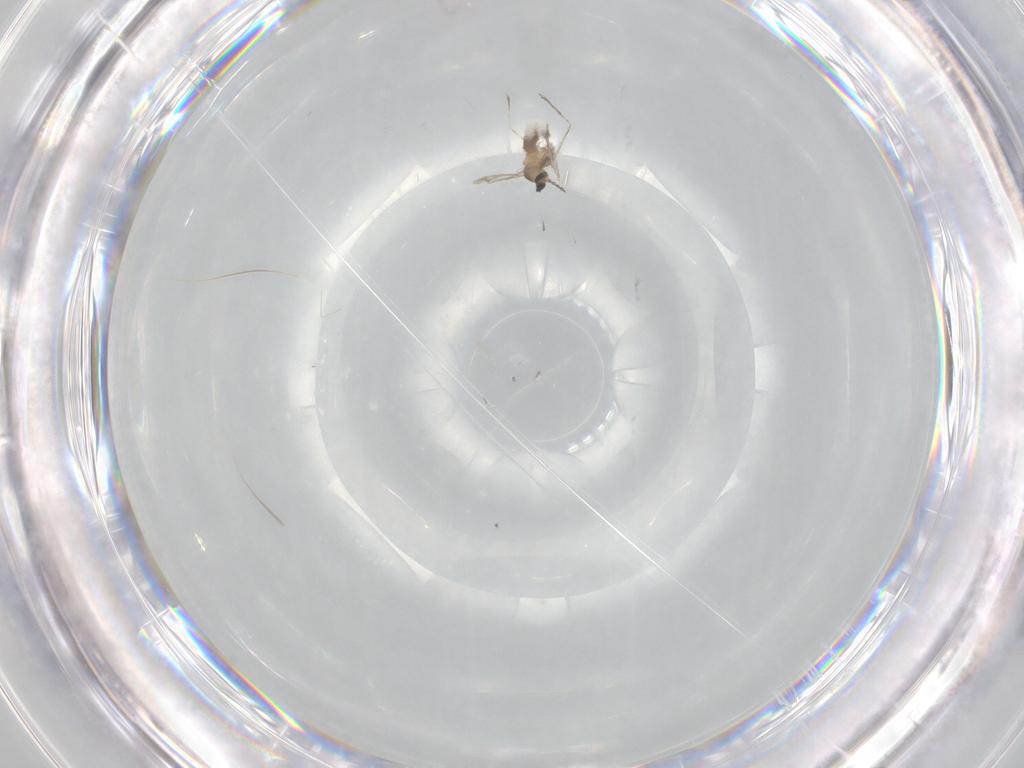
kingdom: Animalia
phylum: Arthropoda
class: Insecta
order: Diptera
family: Cecidomyiidae
